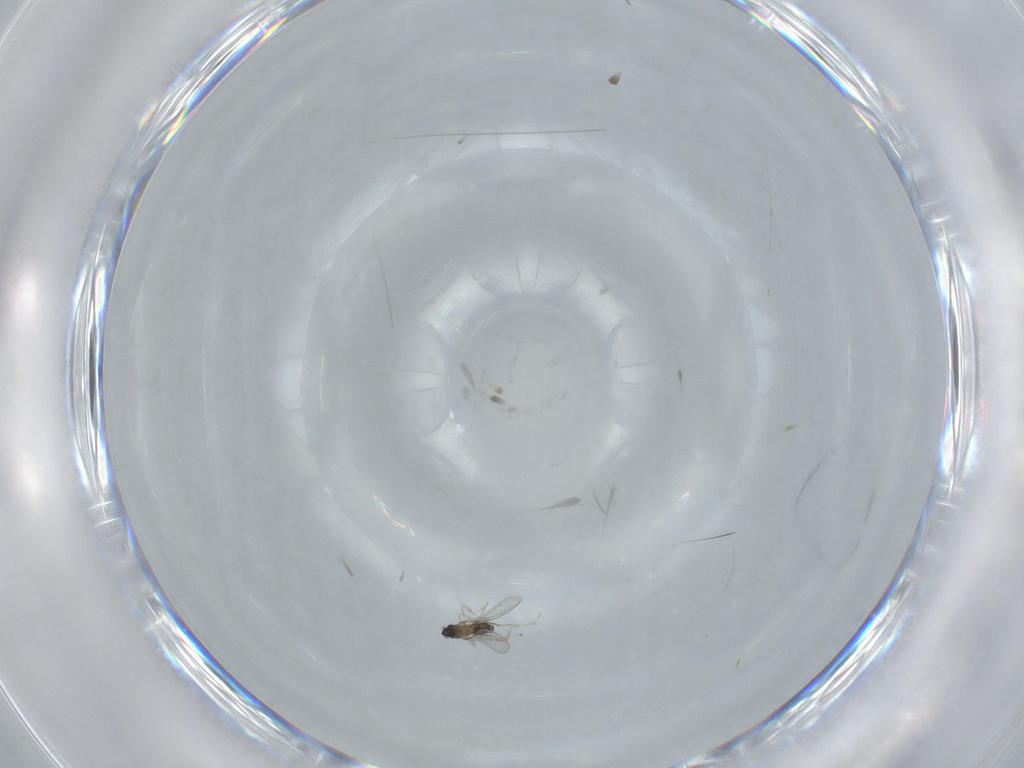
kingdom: Animalia
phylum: Arthropoda
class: Insecta
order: Diptera
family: Cecidomyiidae
